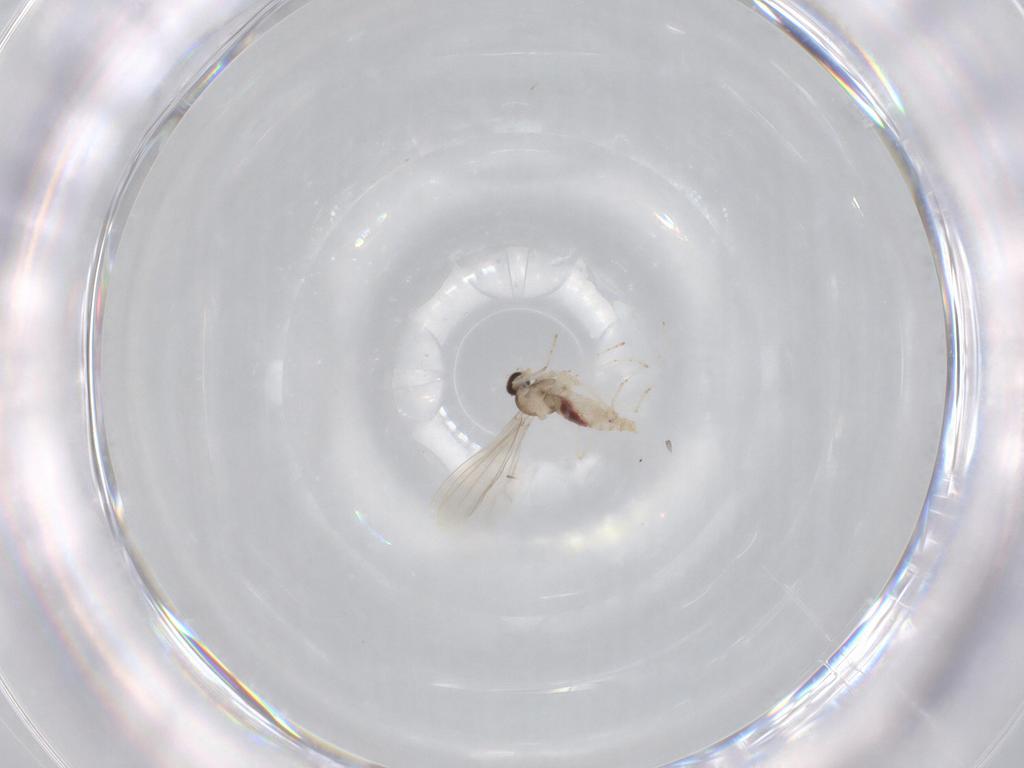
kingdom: Animalia
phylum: Arthropoda
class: Insecta
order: Diptera
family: Cecidomyiidae
